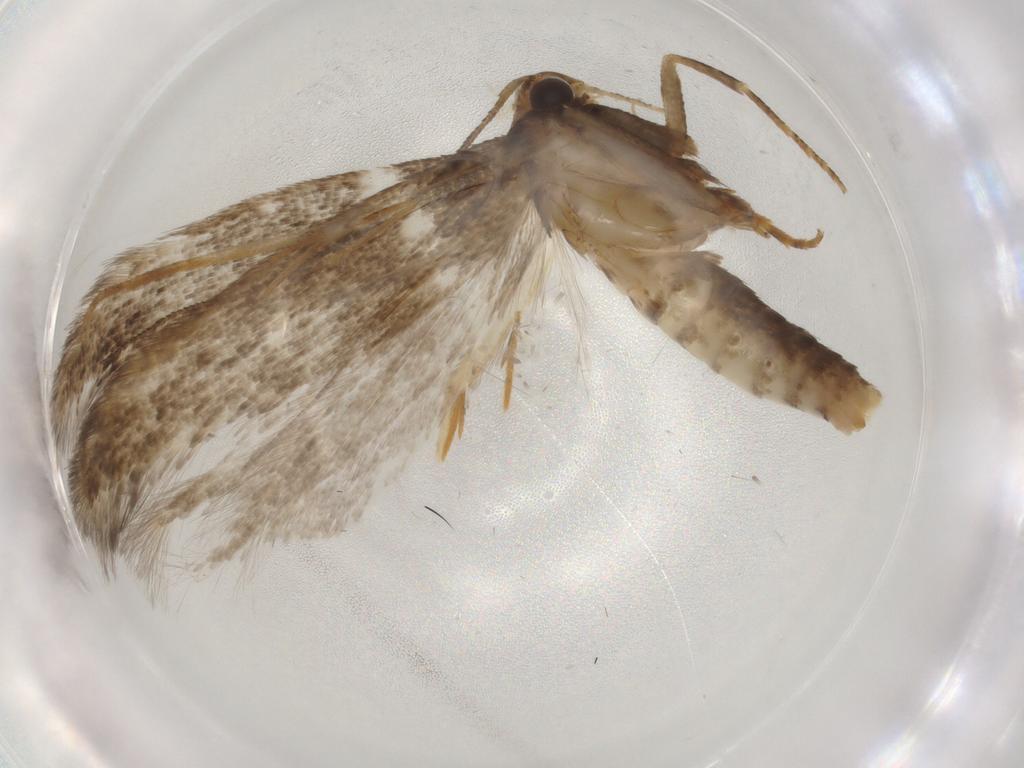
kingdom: Animalia
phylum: Arthropoda
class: Insecta
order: Lepidoptera
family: Gelechiidae
